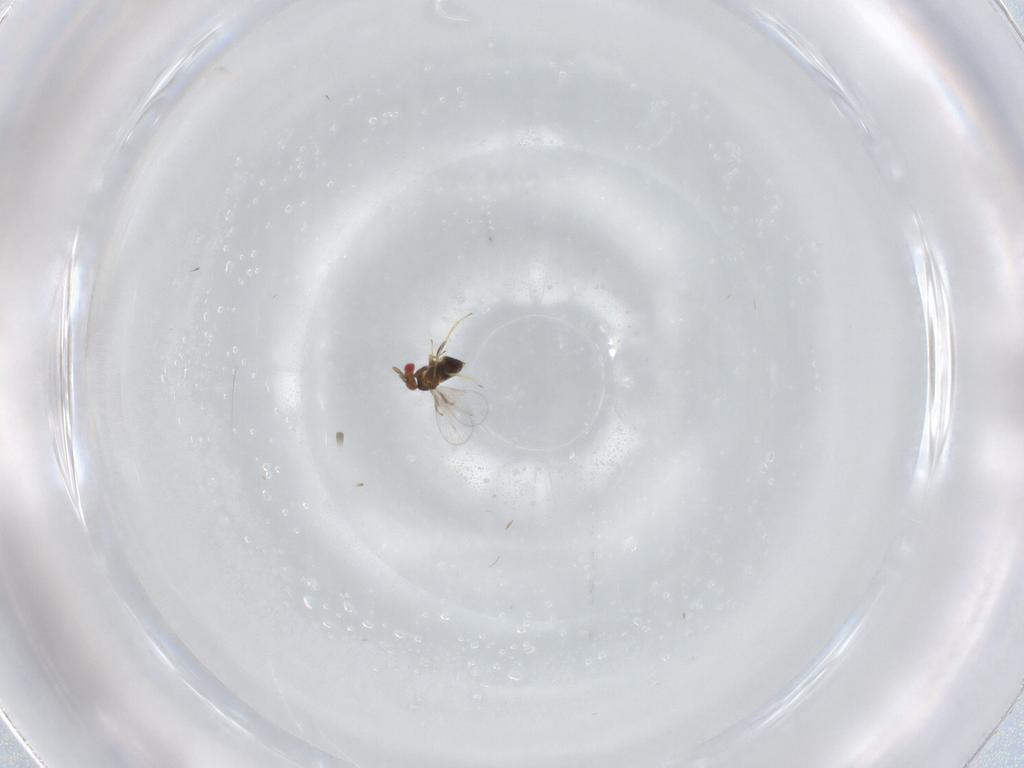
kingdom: Animalia
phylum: Arthropoda
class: Insecta
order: Hymenoptera
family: Trichogrammatidae
